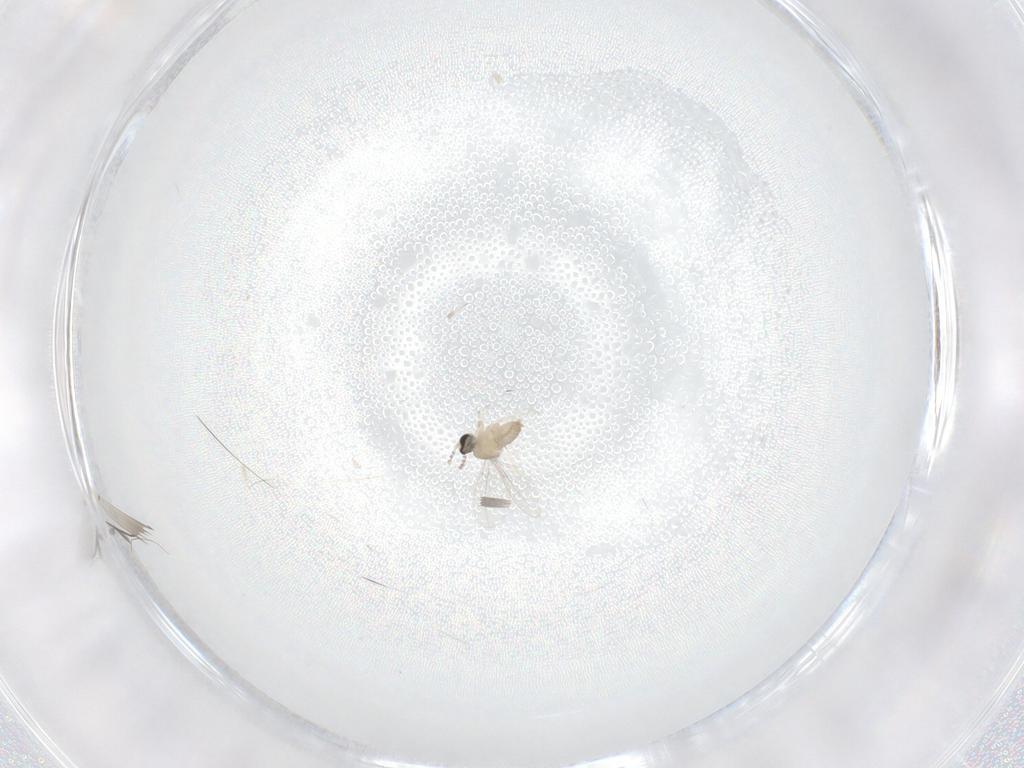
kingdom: Animalia
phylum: Arthropoda
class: Insecta
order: Diptera
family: Cecidomyiidae
